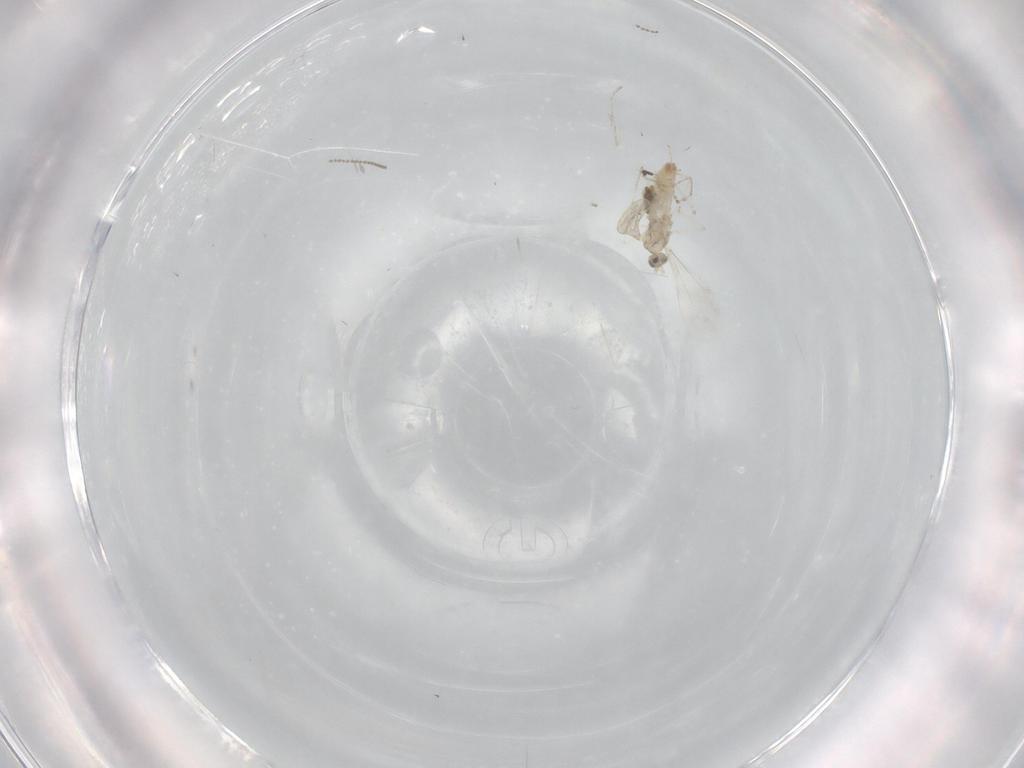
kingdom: Animalia
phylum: Arthropoda
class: Insecta
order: Diptera
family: Cecidomyiidae
